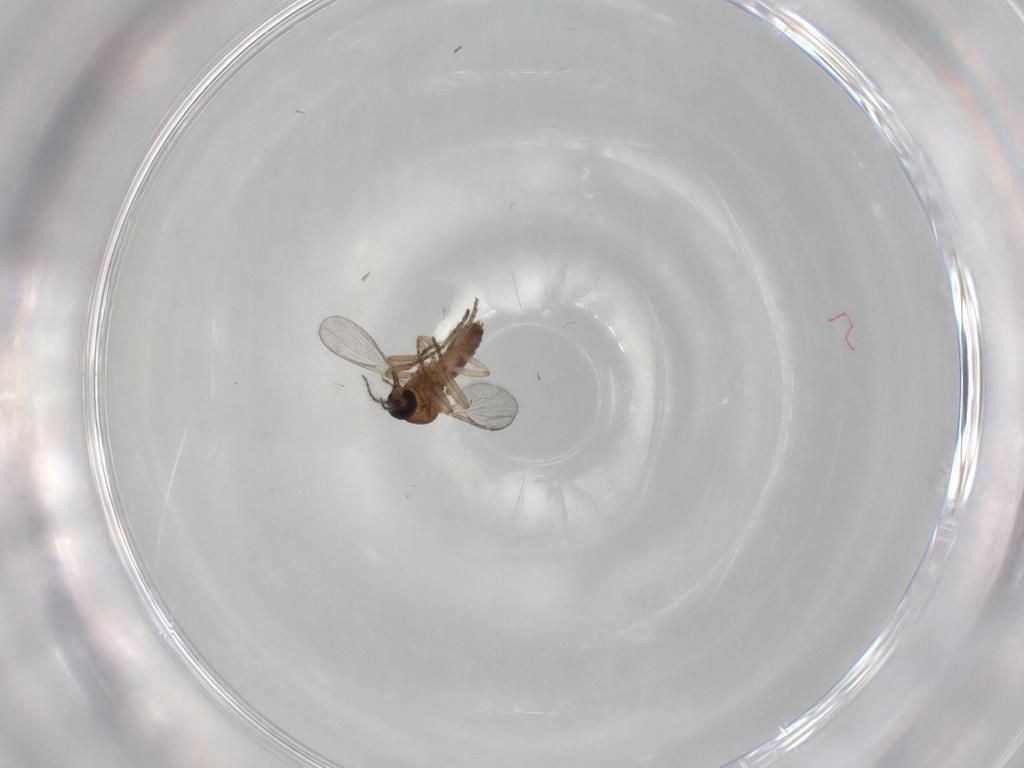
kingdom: Animalia
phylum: Arthropoda
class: Insecta
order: Diptera
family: Ceratopogonidae
